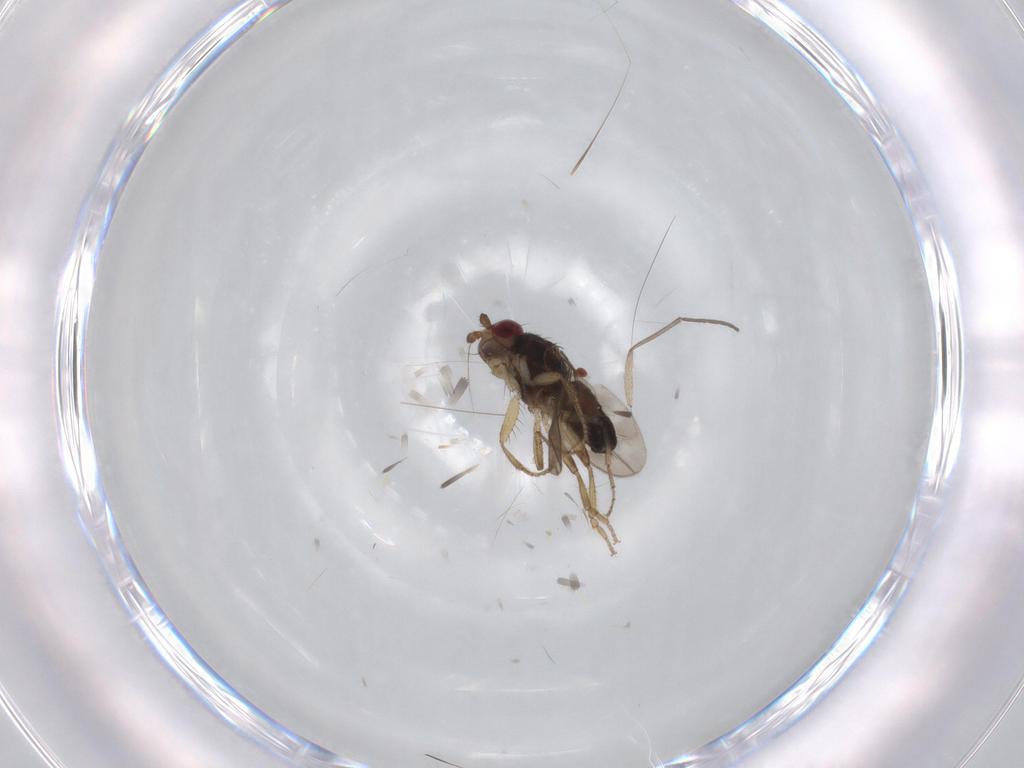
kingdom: Animalia
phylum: Arthropoda
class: Insecta
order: Diptera
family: Sphaeroceridae
